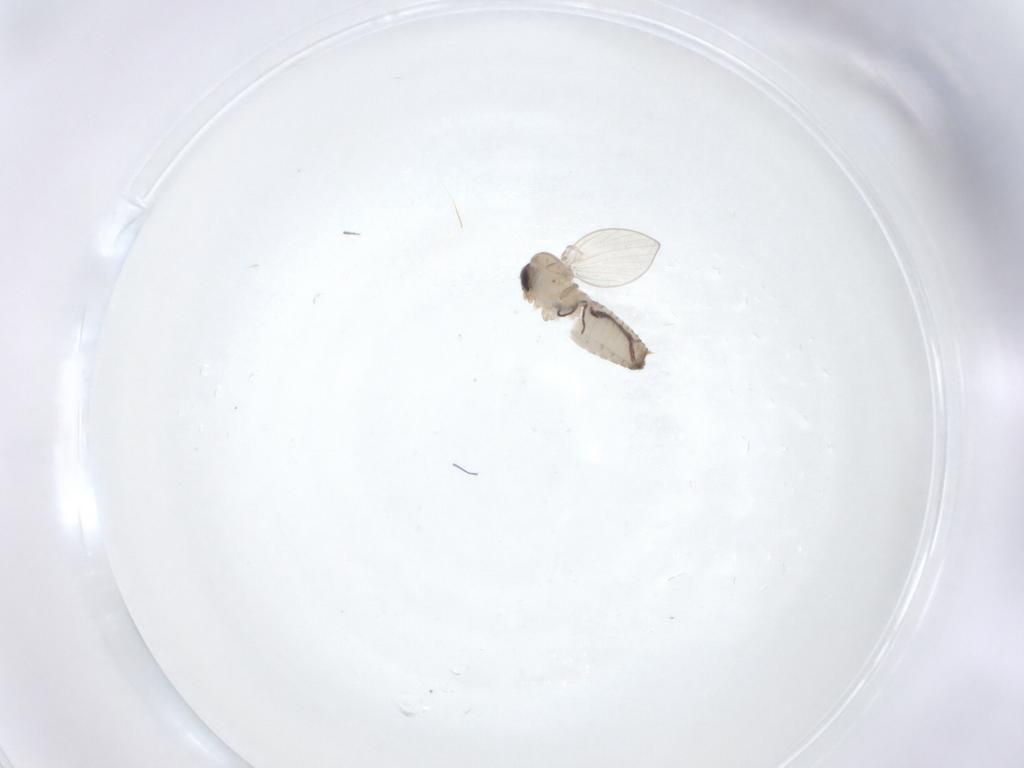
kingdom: Animalia
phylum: Arthropoda
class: Insecta
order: Diptera
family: Psychodidae
